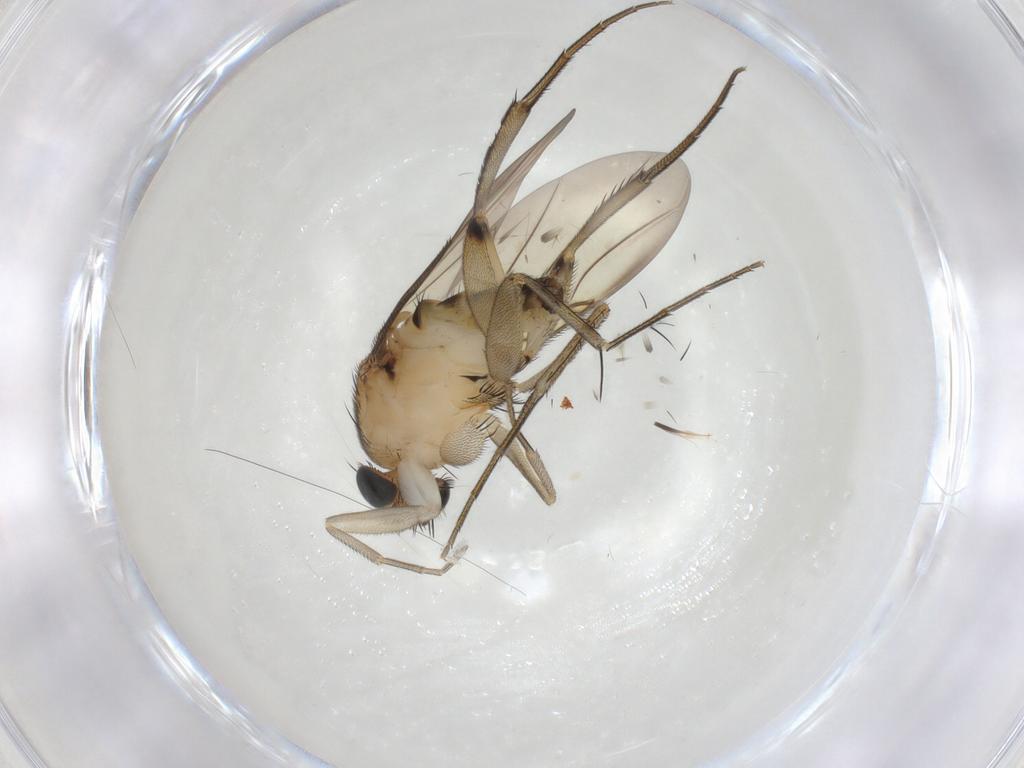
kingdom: Animalia
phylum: Arthropoda
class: Insecta
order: Diptera
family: Phoridae
